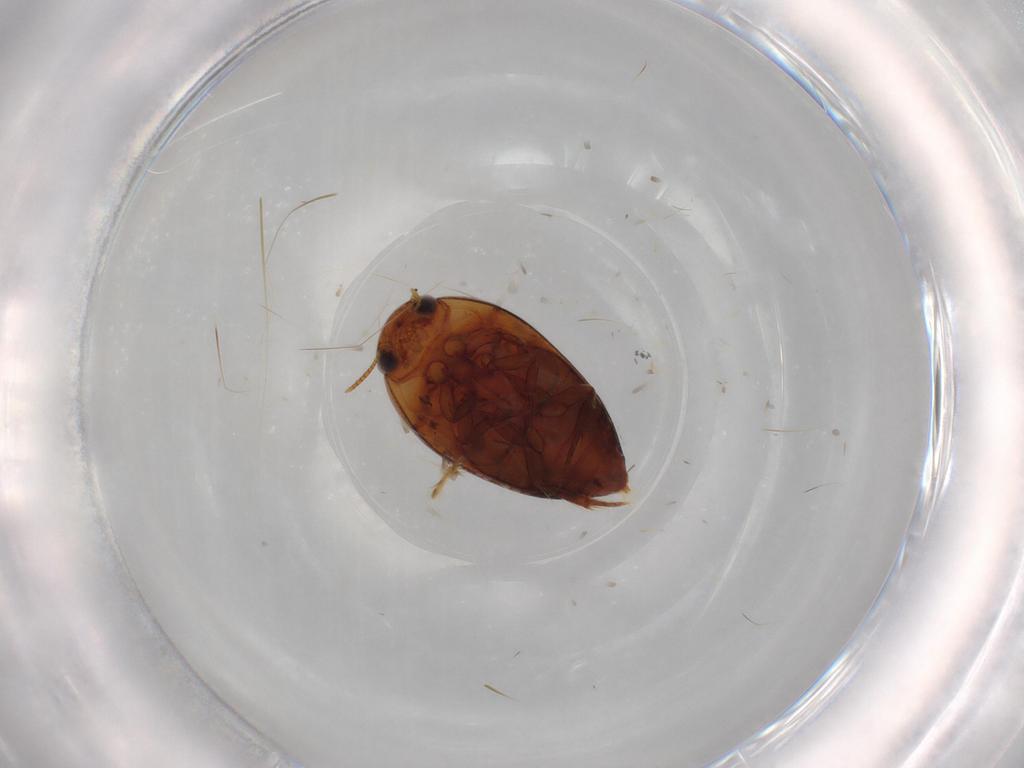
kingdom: Animalia
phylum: Arthropoda
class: Insecta
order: Coleoptera
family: Noteridae
